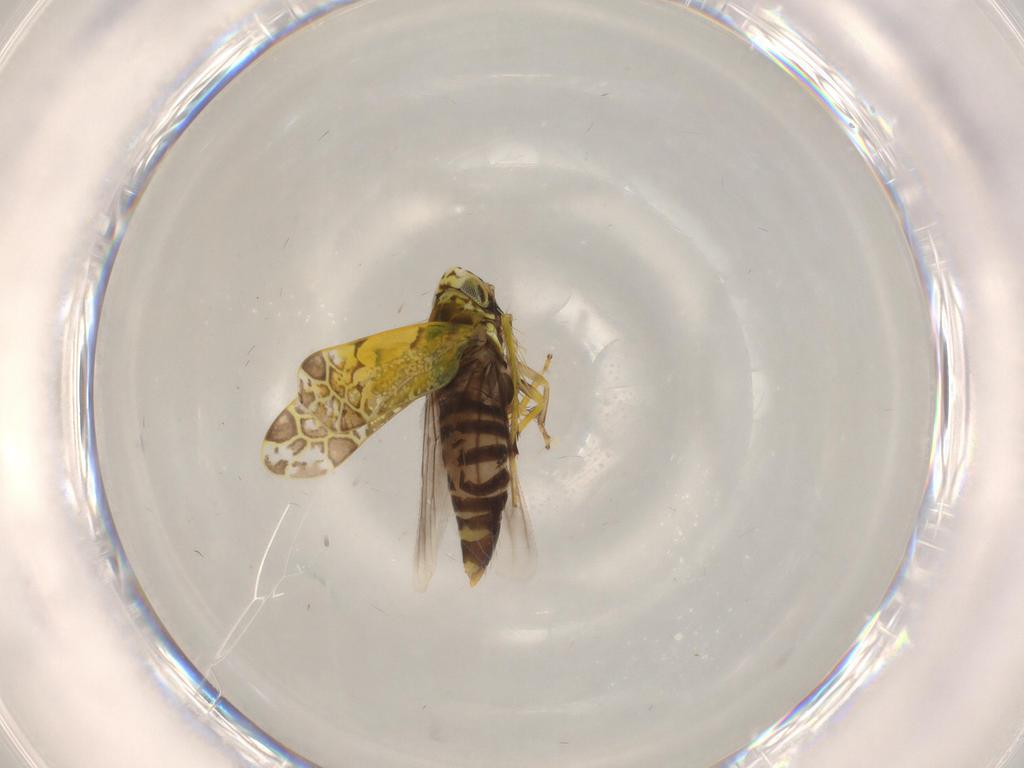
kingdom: Animalia
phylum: Arthropoda
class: Insecta
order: Hemiptera
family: Cicadellidae
